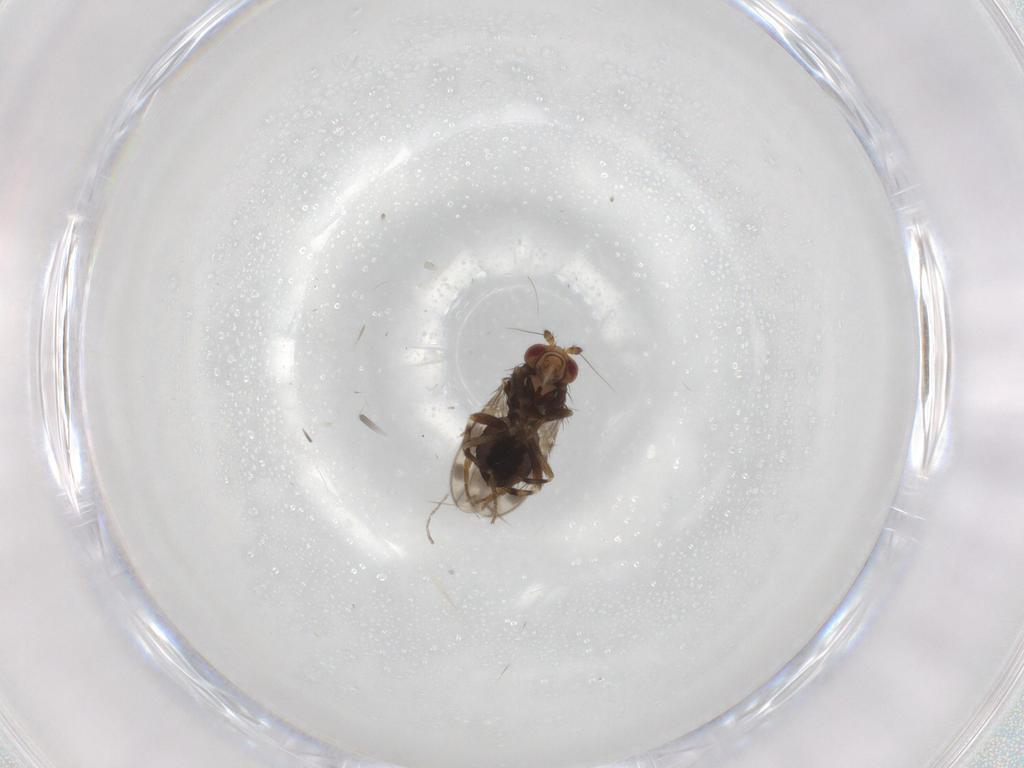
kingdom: Animalia
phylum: Arthropoda
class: Insecta
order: Diptera
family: Sphaeroceridae
